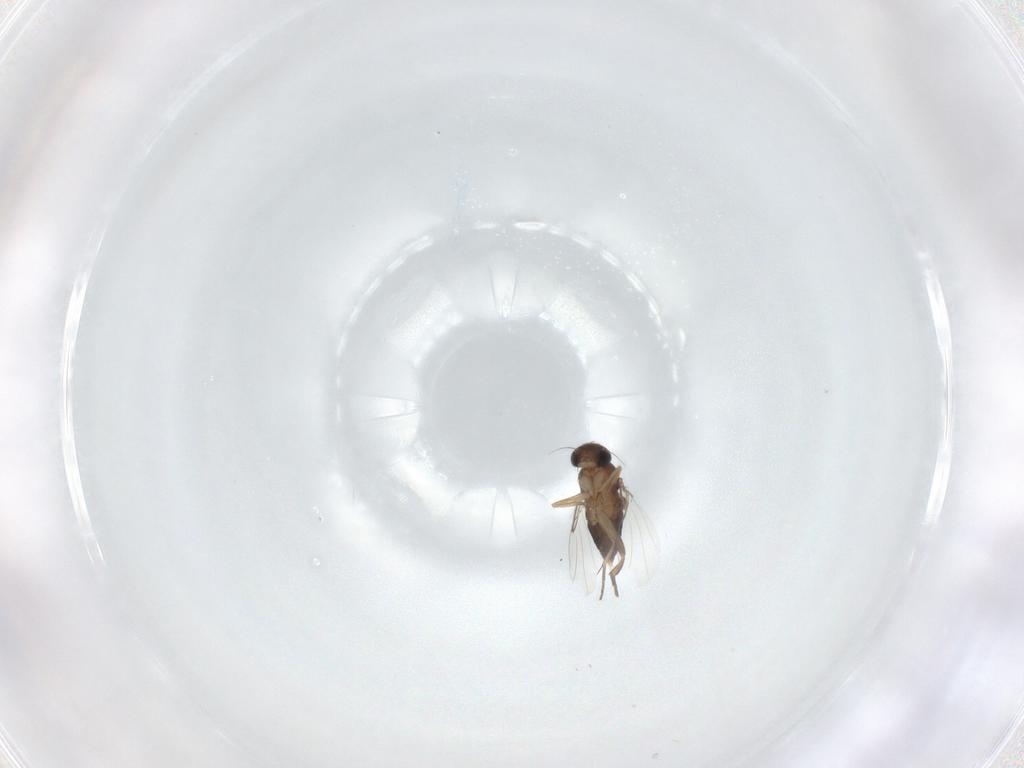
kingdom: Animalia
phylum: Arthropoda
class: Insecta
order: Diptera
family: Phoridae
